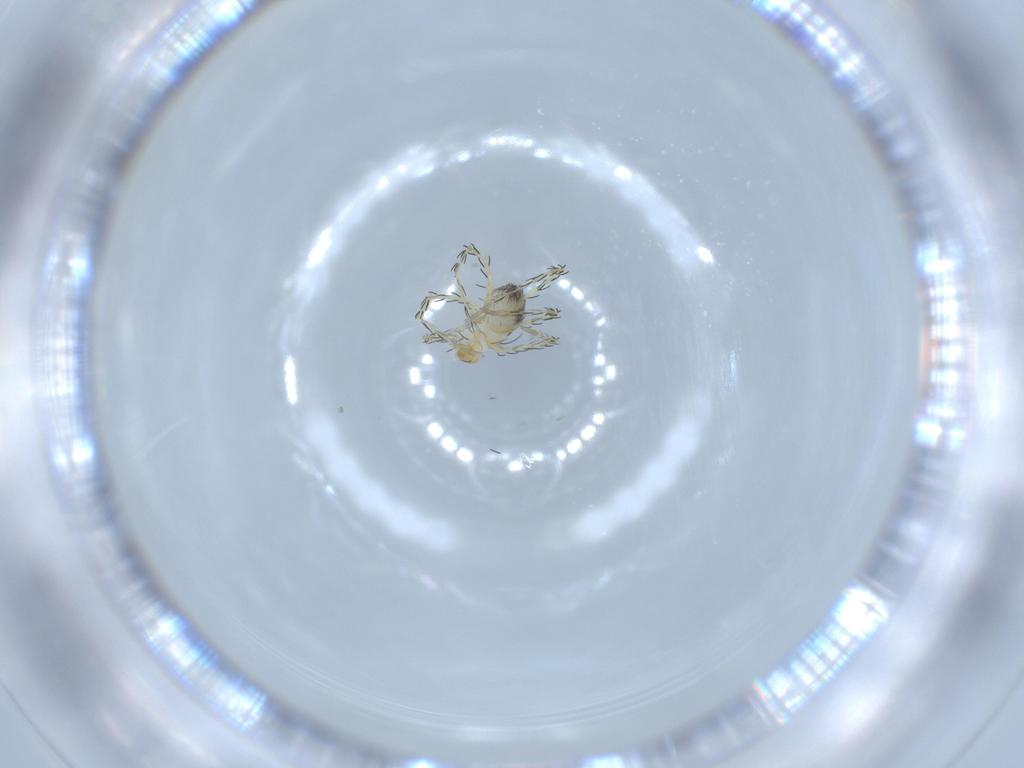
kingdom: Animalia
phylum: Arthropoda
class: Arachnida
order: Trombidiformes
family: Erythraeidae
